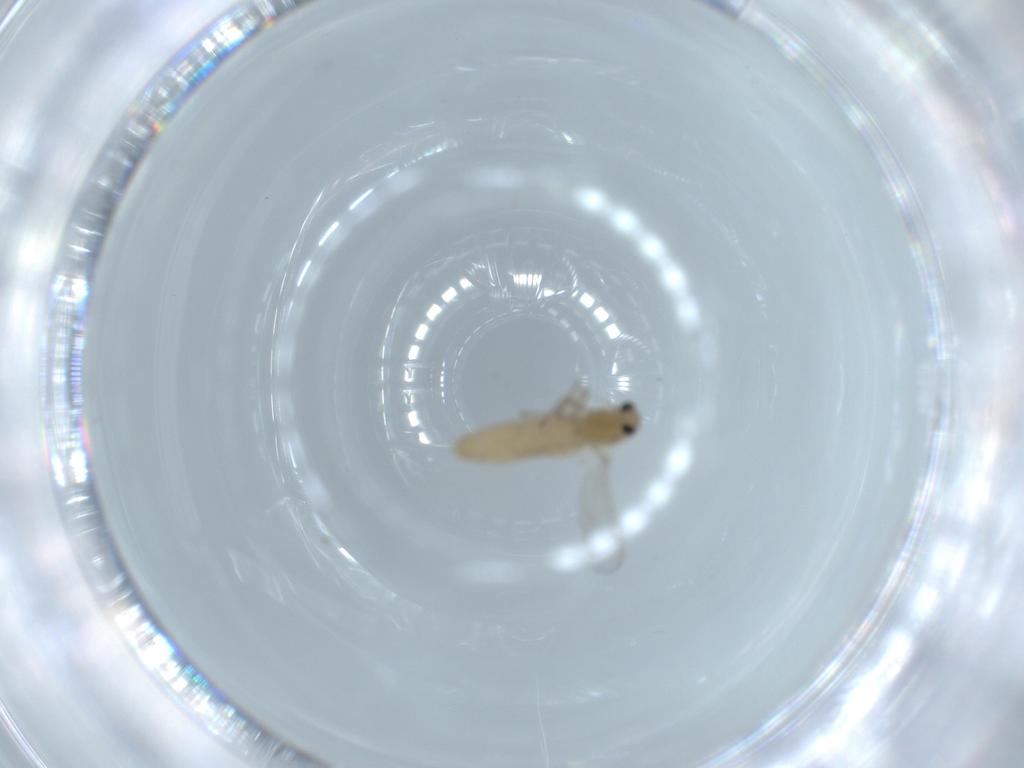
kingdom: Animalia
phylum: Arthropoda
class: Insecta
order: Diptera
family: Chironomidae
